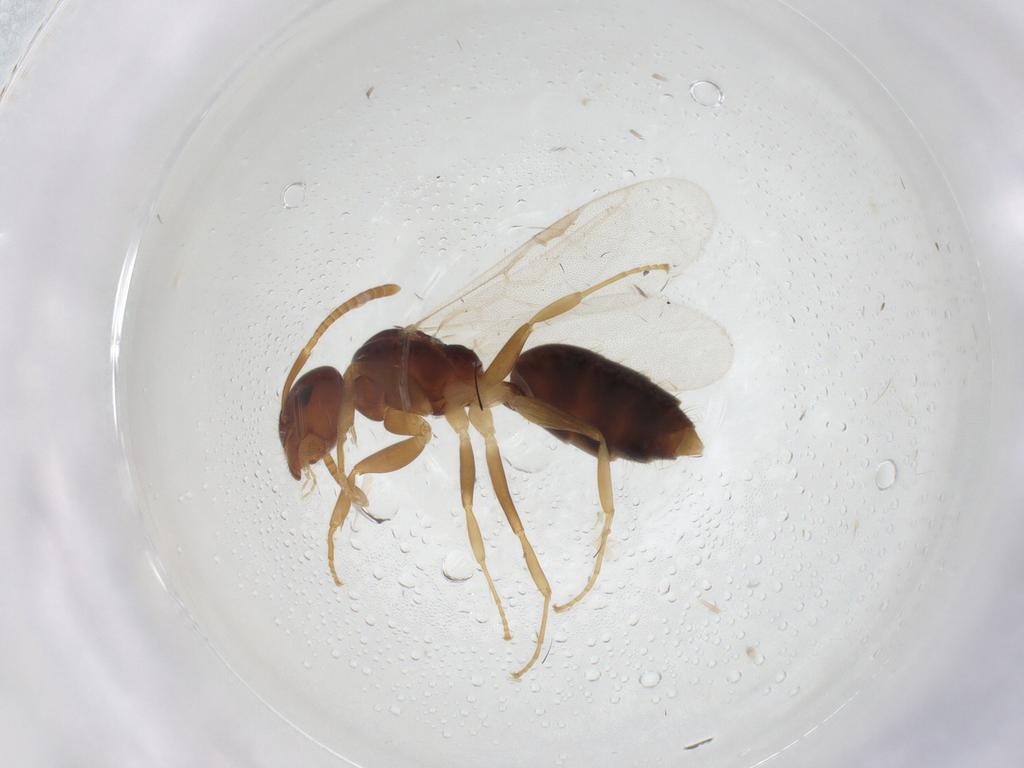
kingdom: Animalia
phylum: Arthropoda
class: Insecta
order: Hymenoptera
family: Formicidae
